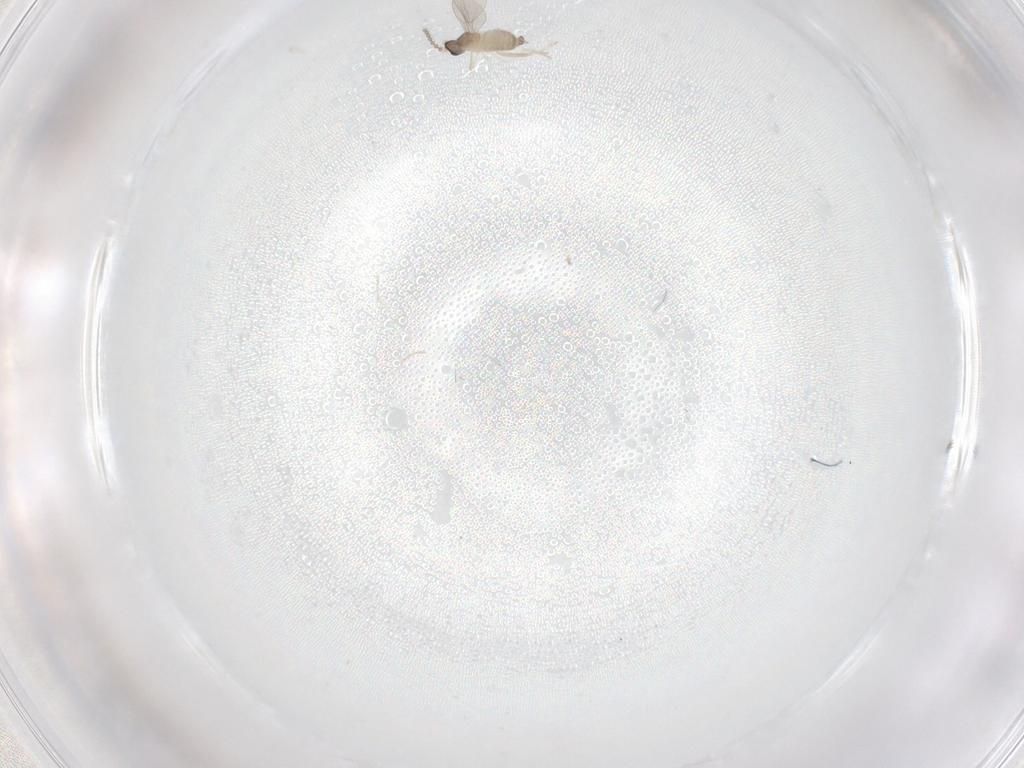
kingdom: Animalia
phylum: Arthropoda
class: Insecta
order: Diptera
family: Cecidomyiidae
